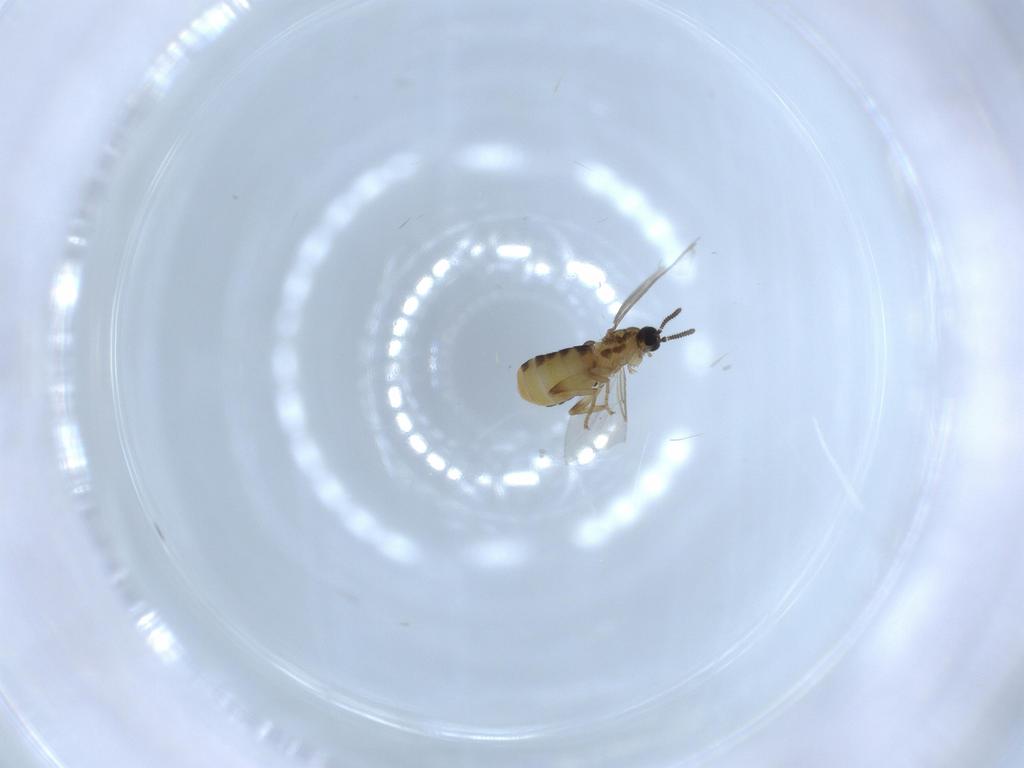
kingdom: Animalia
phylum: Arthropoda
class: Insecta
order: Diptera
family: Scatopsidae
